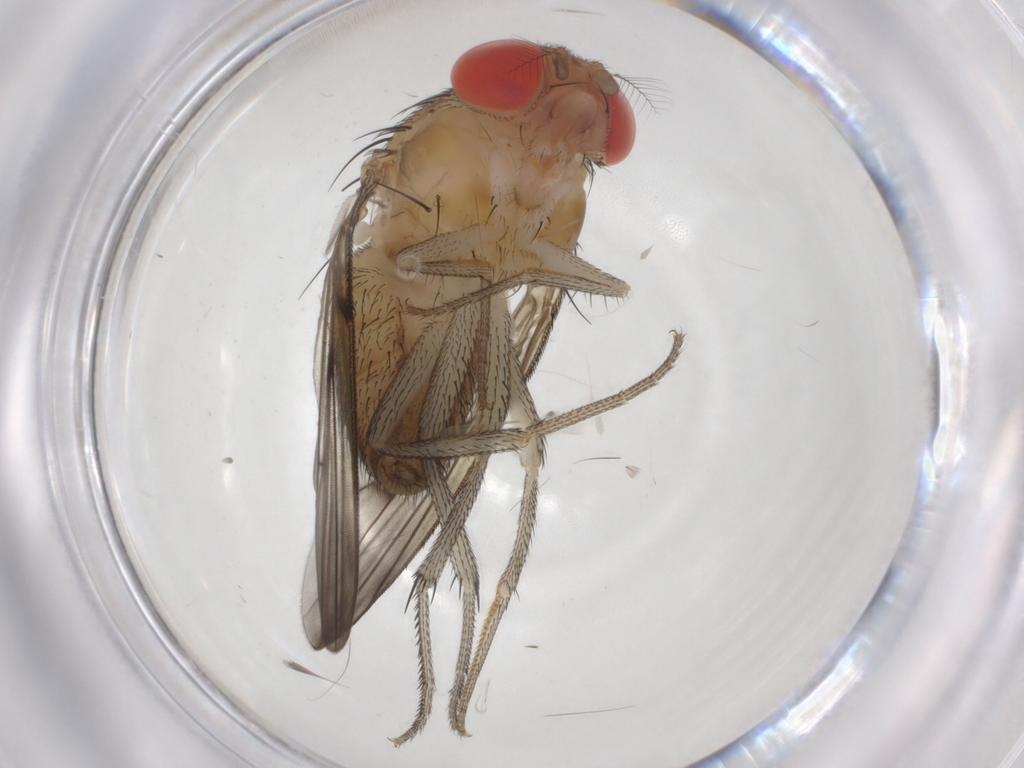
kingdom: Animalia
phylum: Arthropoda
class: Insecta
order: Diptera
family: Drosophilidae
